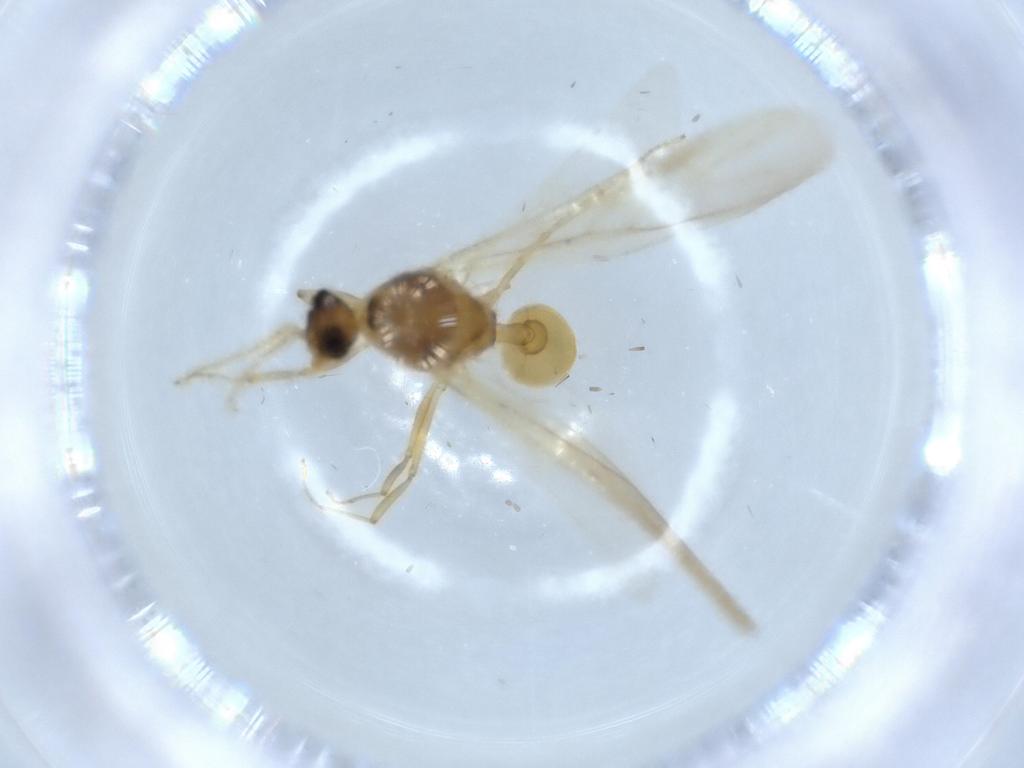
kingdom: Animalia
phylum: Arthropoda
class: Insecta
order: Hymenoptera
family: Formicidae
